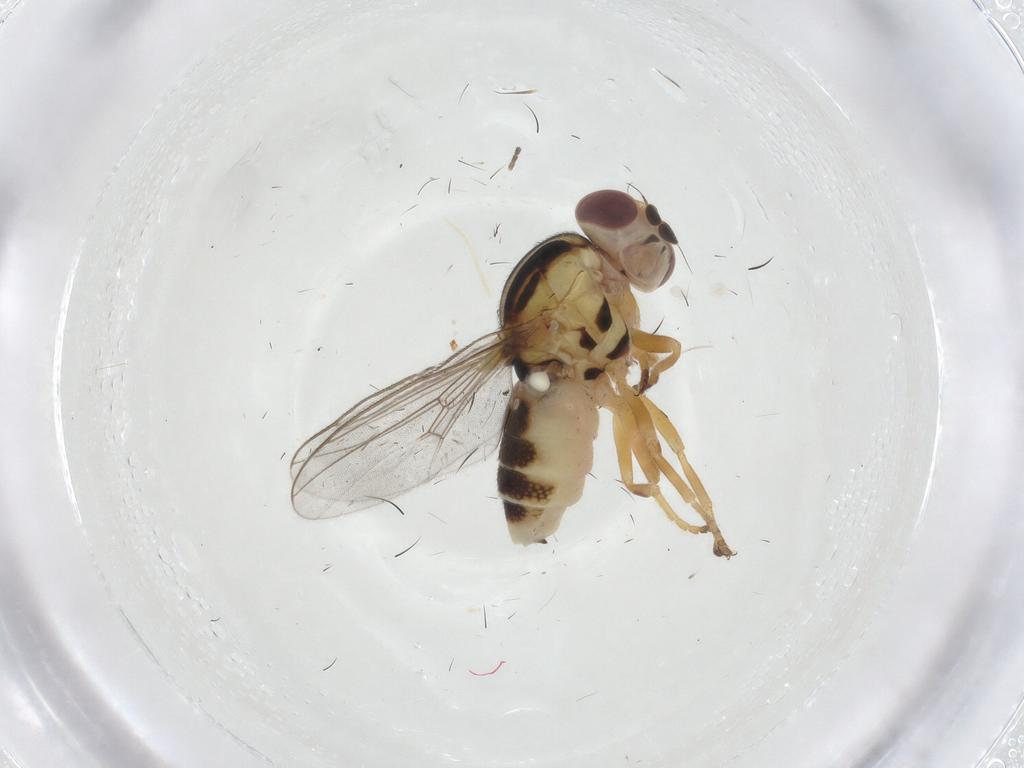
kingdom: Animalia
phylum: Arthropoda
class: Insecta
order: Diptera
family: Chloropidae
